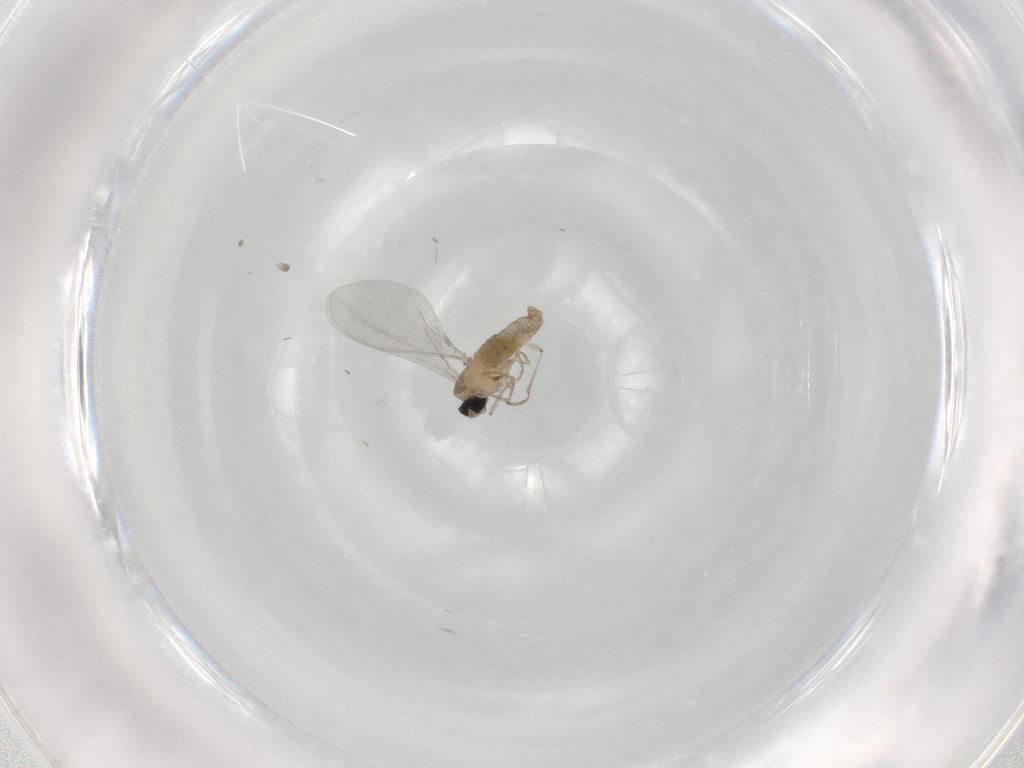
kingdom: Animalia
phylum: Arthropoda
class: Insecta
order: Diptera
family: Cecidomyiidae
